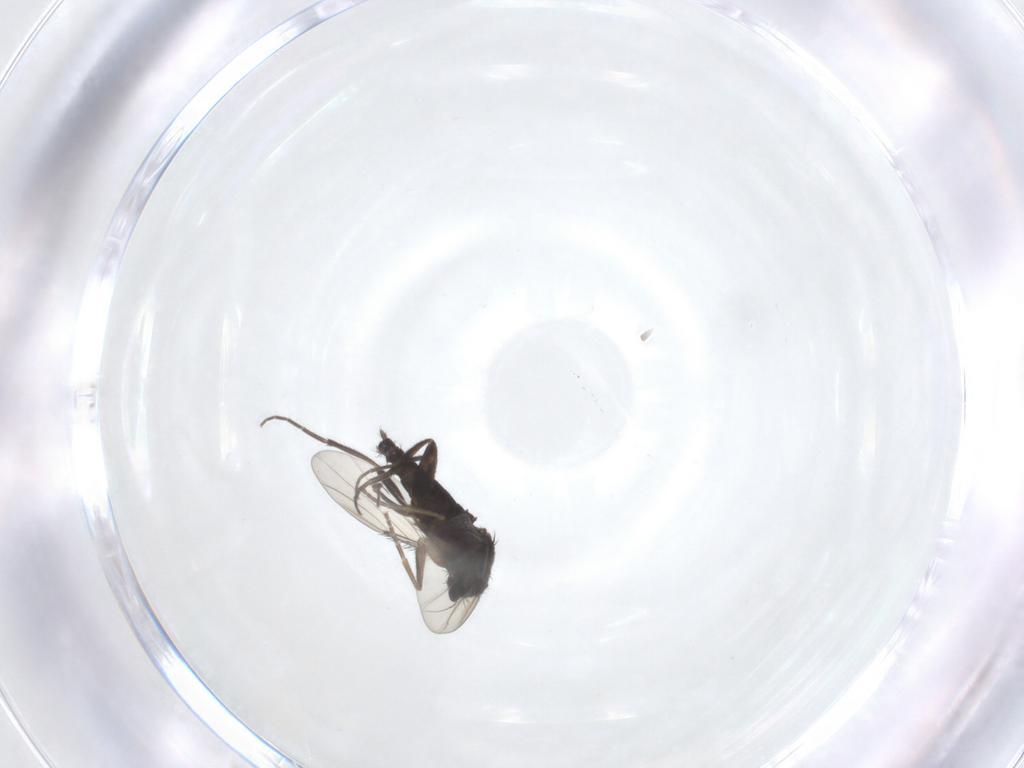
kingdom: Animalia
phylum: Arthropoda
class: Insecta
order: Diptera
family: Phoridae
